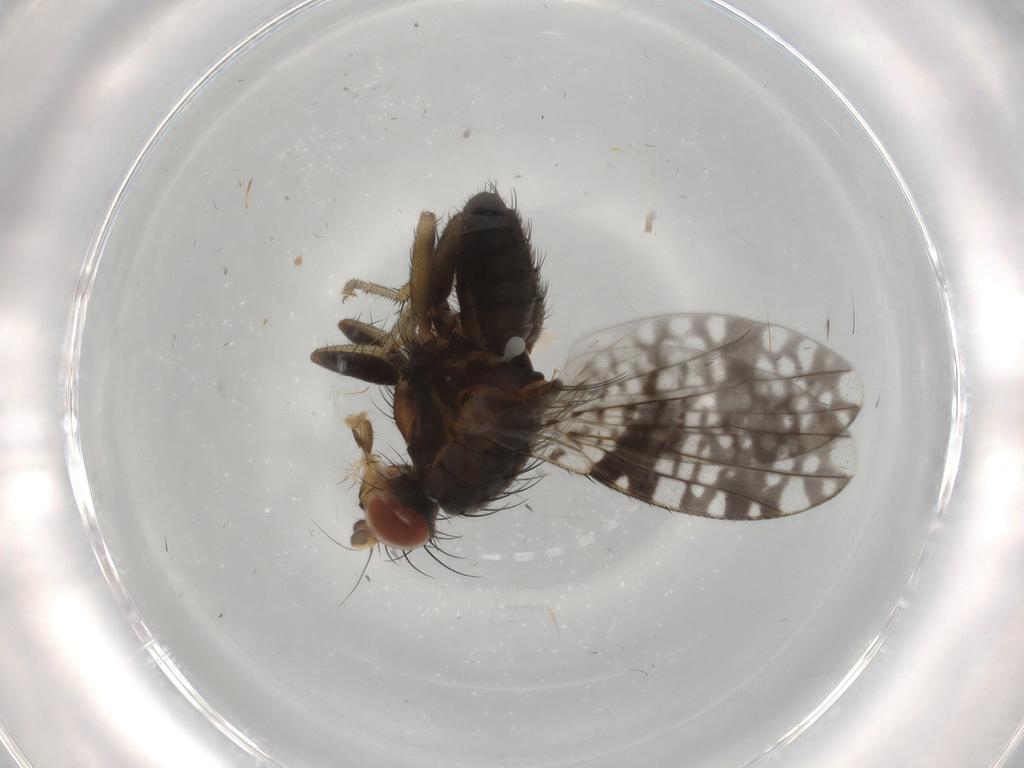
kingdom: Animalia
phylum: Arthropoda
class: Insecta
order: Diptera
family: Tephritidae
